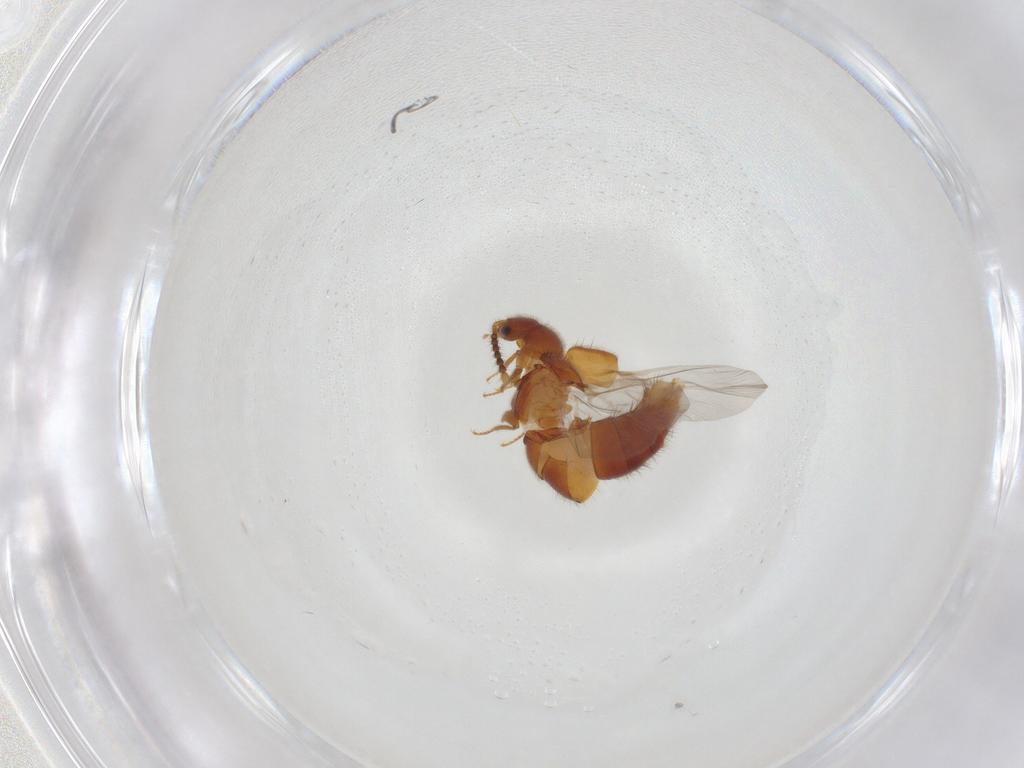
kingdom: Animalia
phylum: Arthropoda
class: Insecta
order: Coleoptera
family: Staphylinidae
